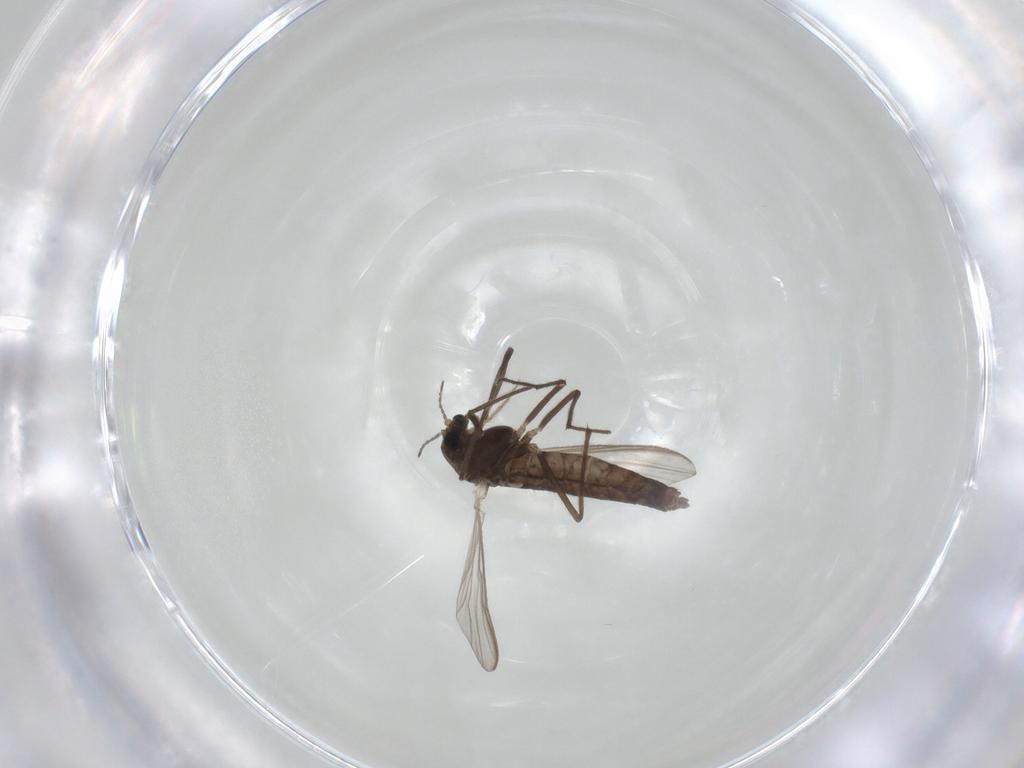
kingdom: Animalia
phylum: Arthropoda
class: Insecta
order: Diptera
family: Chironomidae
